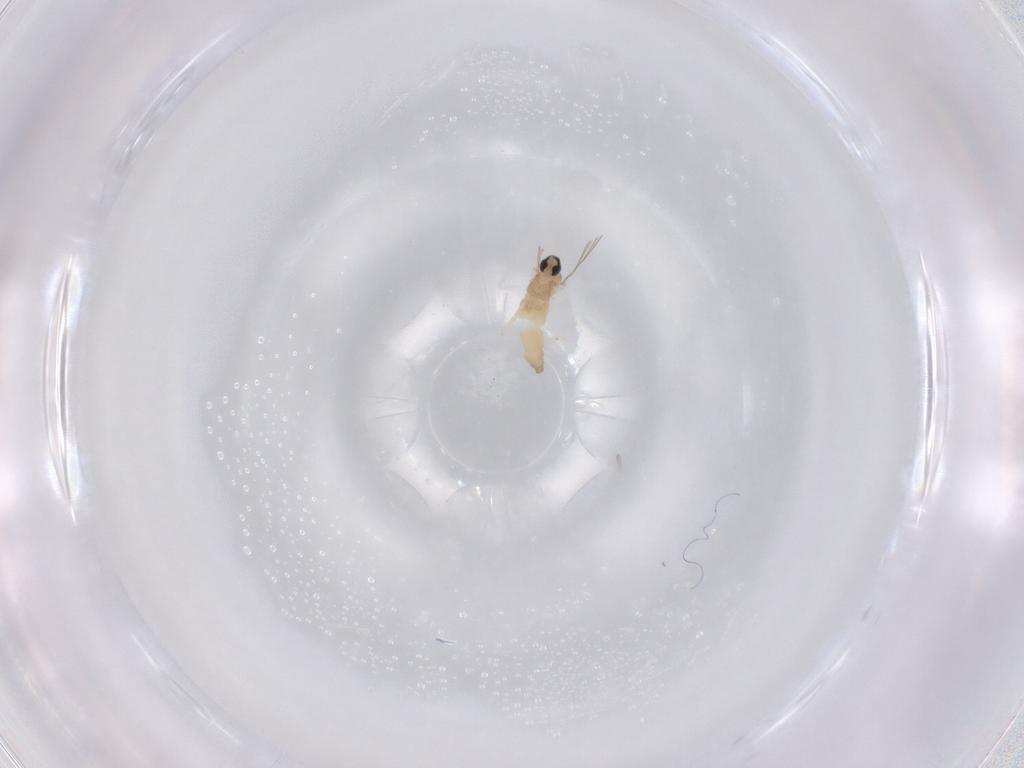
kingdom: Animalia
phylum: Arthropoda
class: Insecta
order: Diptera
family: Cecidomyiidae
